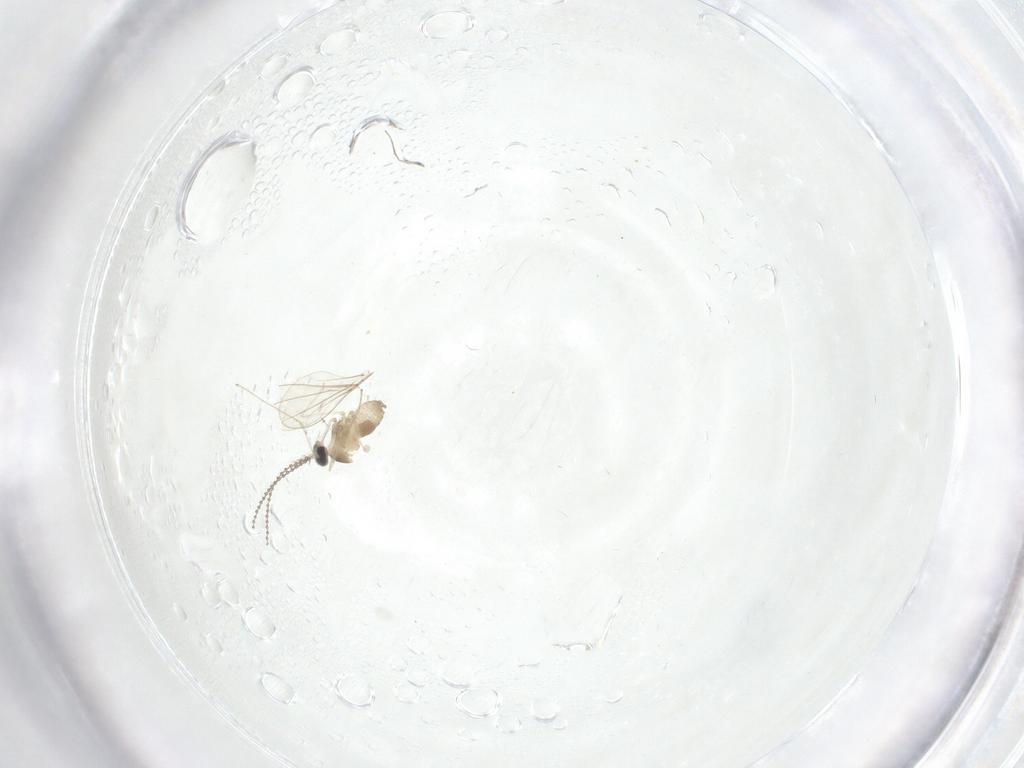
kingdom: Animalia
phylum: Arthropoda
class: Insecta
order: Diptera
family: Cecidomyiidae
